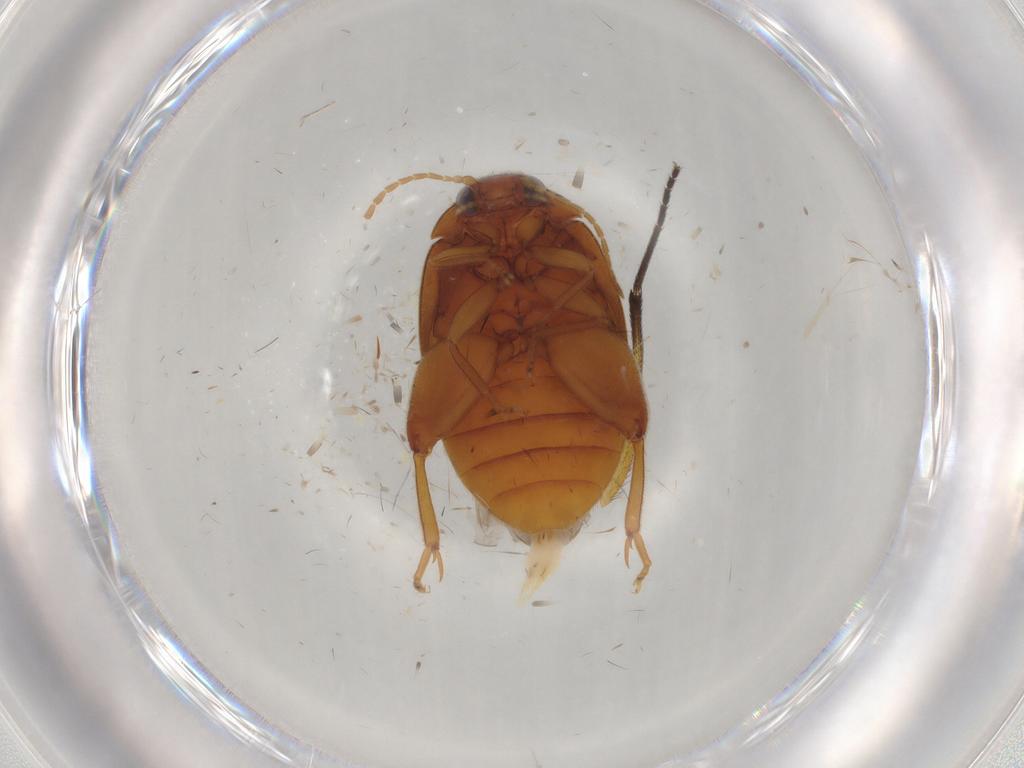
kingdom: Animalia
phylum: Arthropoda
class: Insecta
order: Coleoptera
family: Scirtidae
